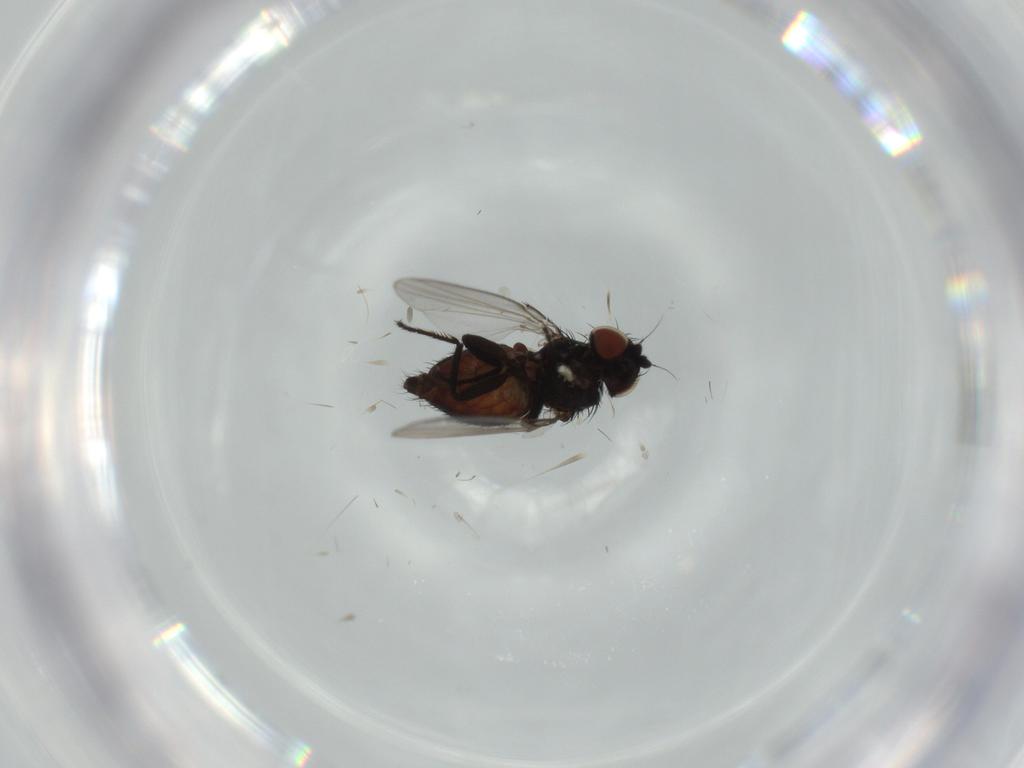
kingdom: Animalia
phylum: Arthropoda
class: Insecta
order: Diptera
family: Milichiidae
